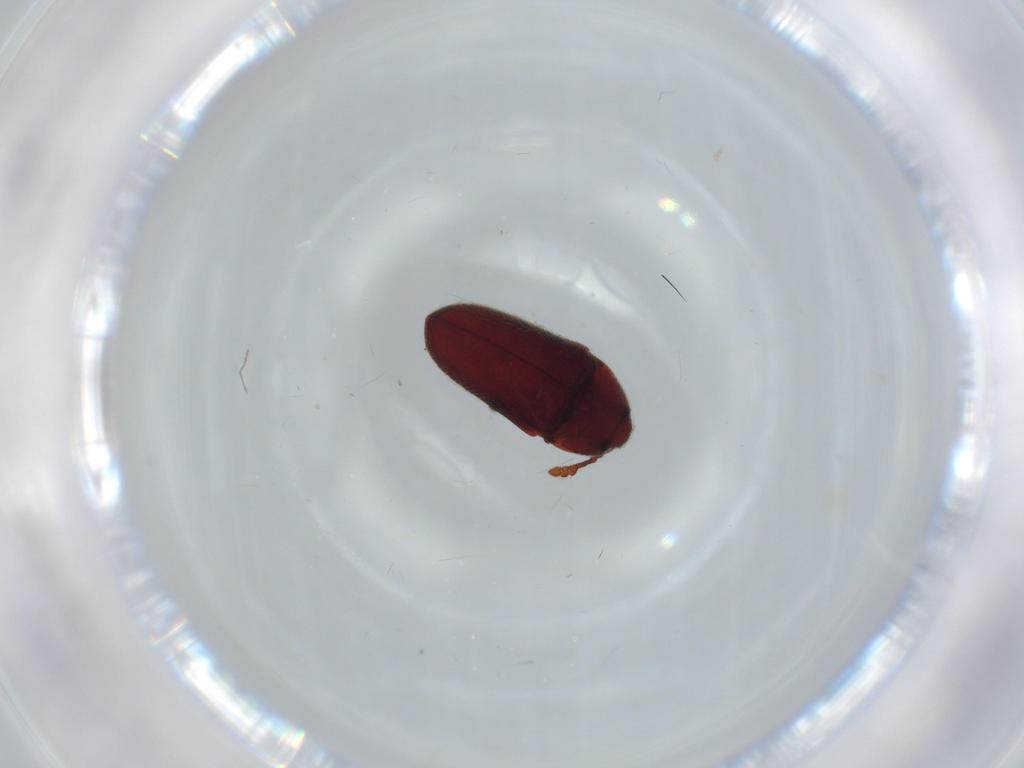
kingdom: Animalia
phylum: Arthropoda
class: Insecta
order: Coleoptera
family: Throscidae
